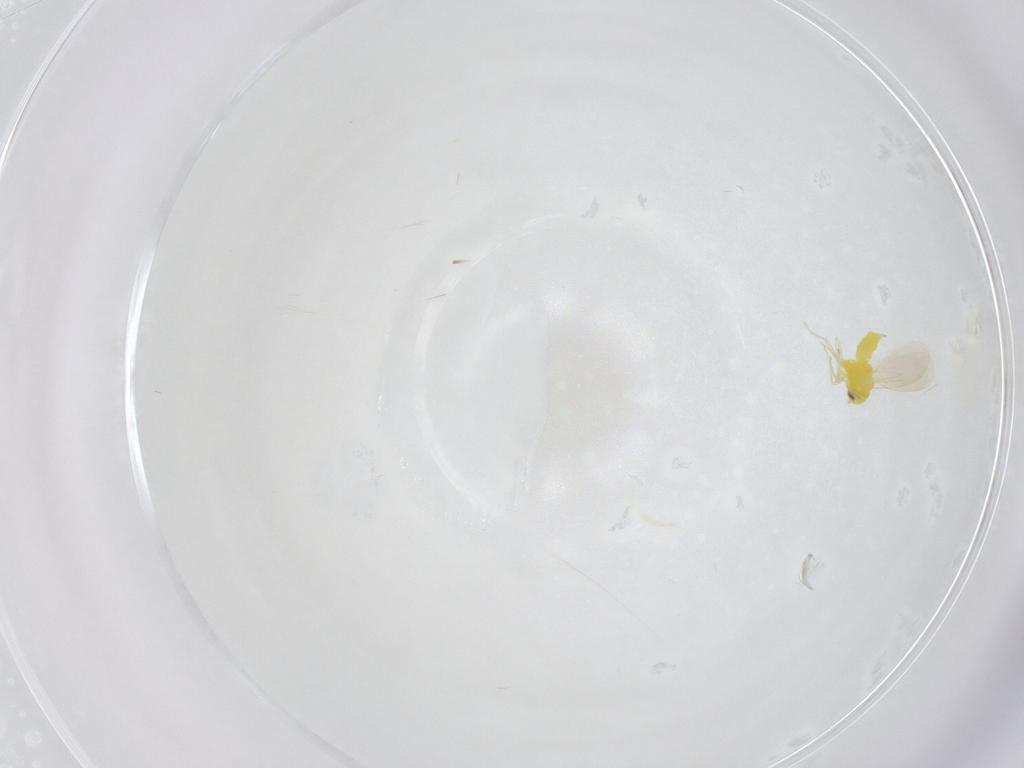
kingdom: Animalia
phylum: Arthropoda
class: Insecta
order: Hemiptera
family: Aleyrodidae
